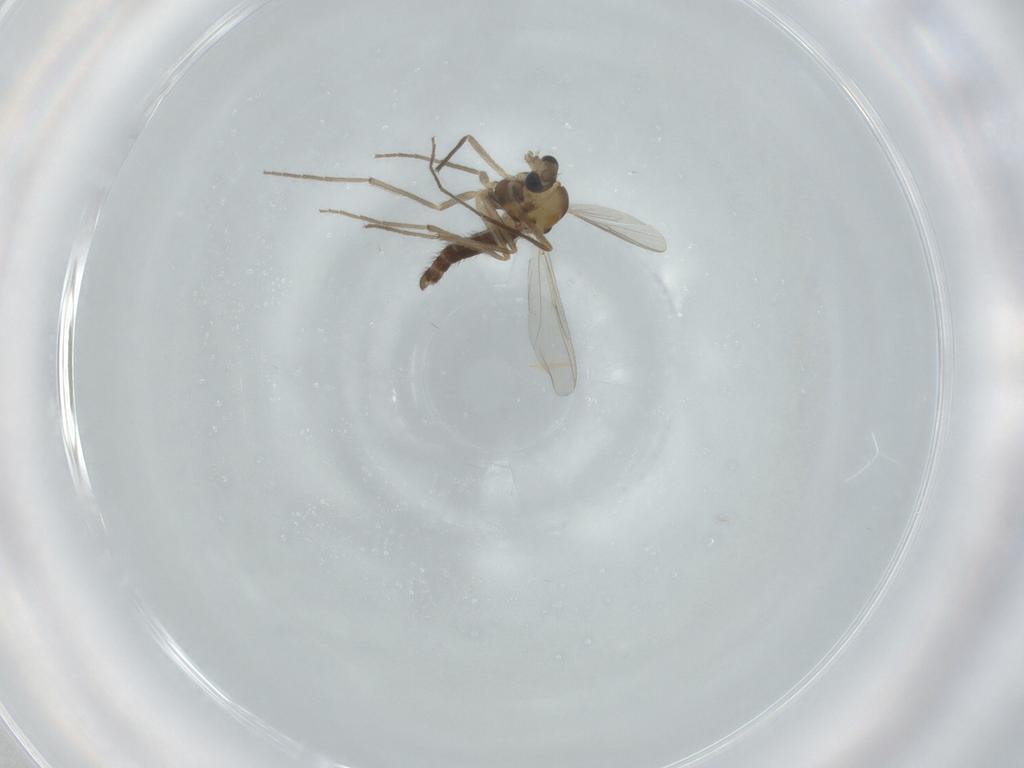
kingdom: Animalia
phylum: Arthropoda
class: Insecta
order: Diptera
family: Chironomidae
